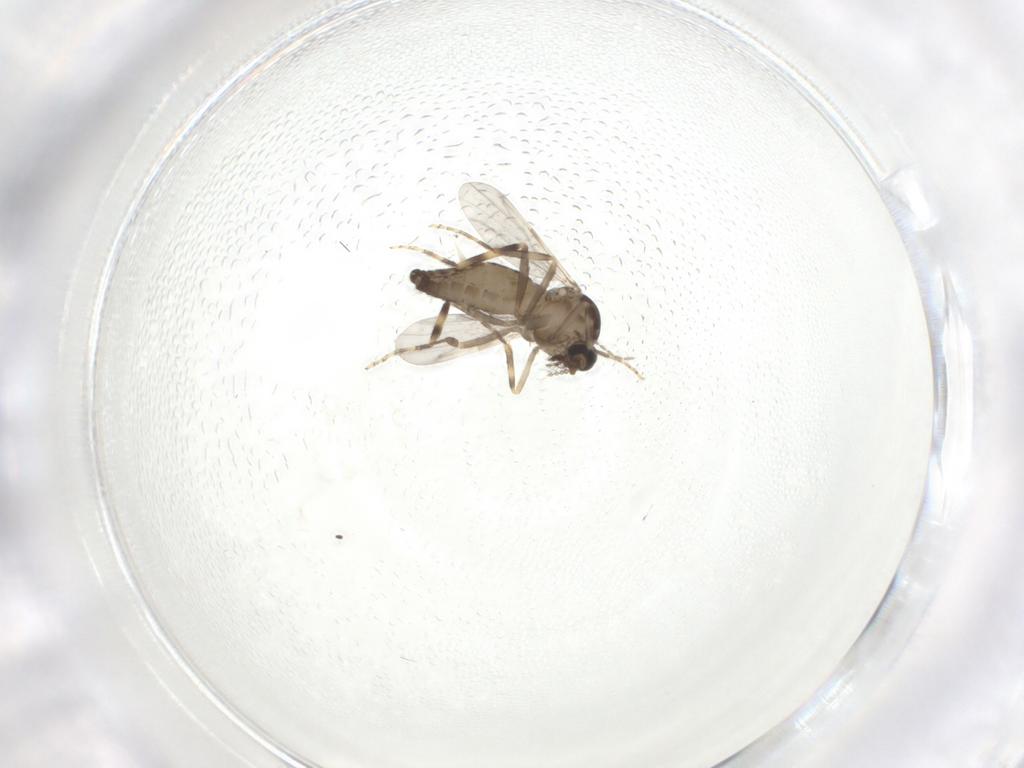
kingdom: Animalia
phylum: Arthropoda
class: Insecta
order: Diptera
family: Ceratopogonidae
